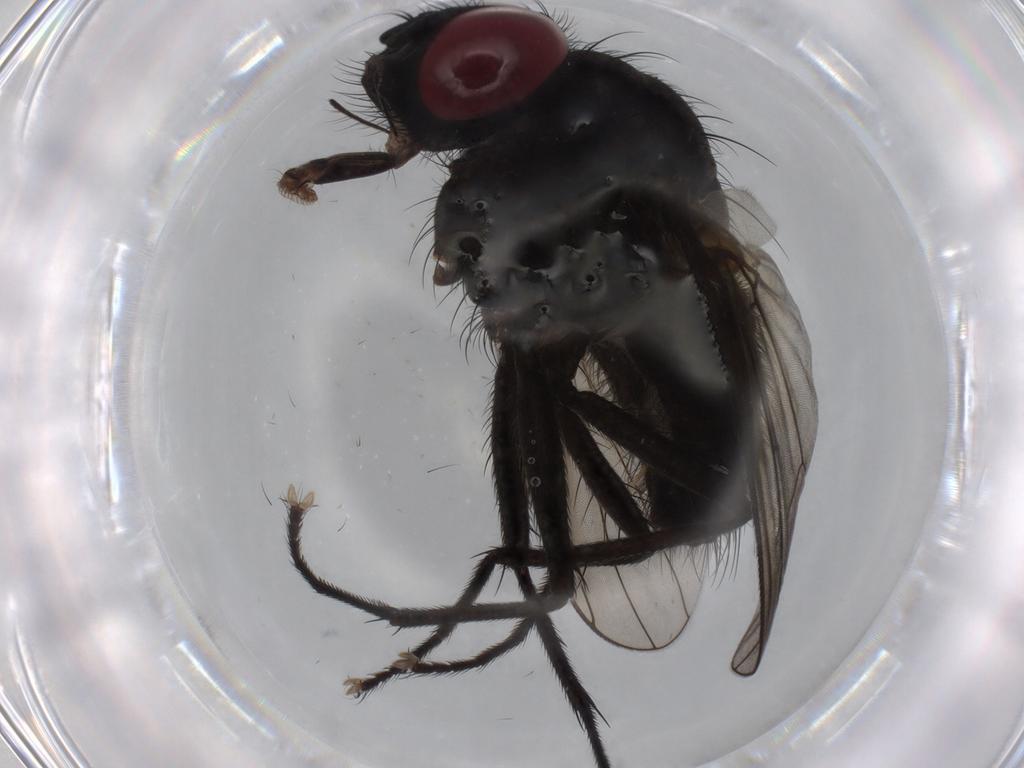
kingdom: Animalia
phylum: Arthropoda
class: Insecta
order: Diptera
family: Muscidae
